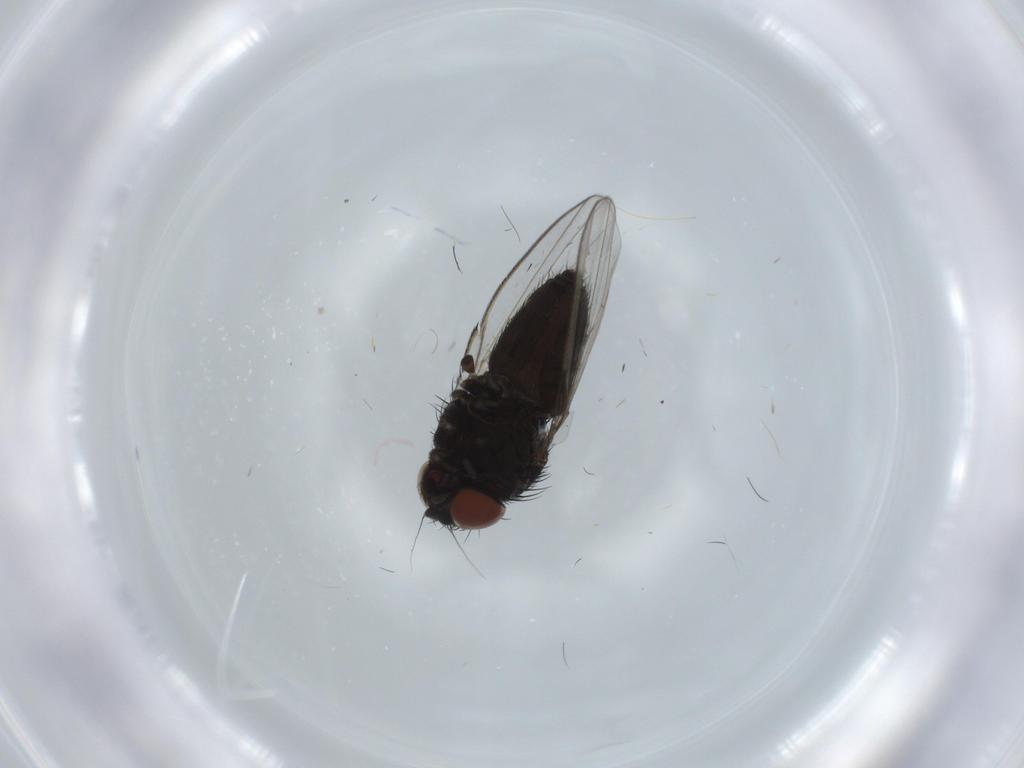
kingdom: Animalia
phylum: Arthropoda
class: Insecta
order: Diptera
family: Milichiidae
